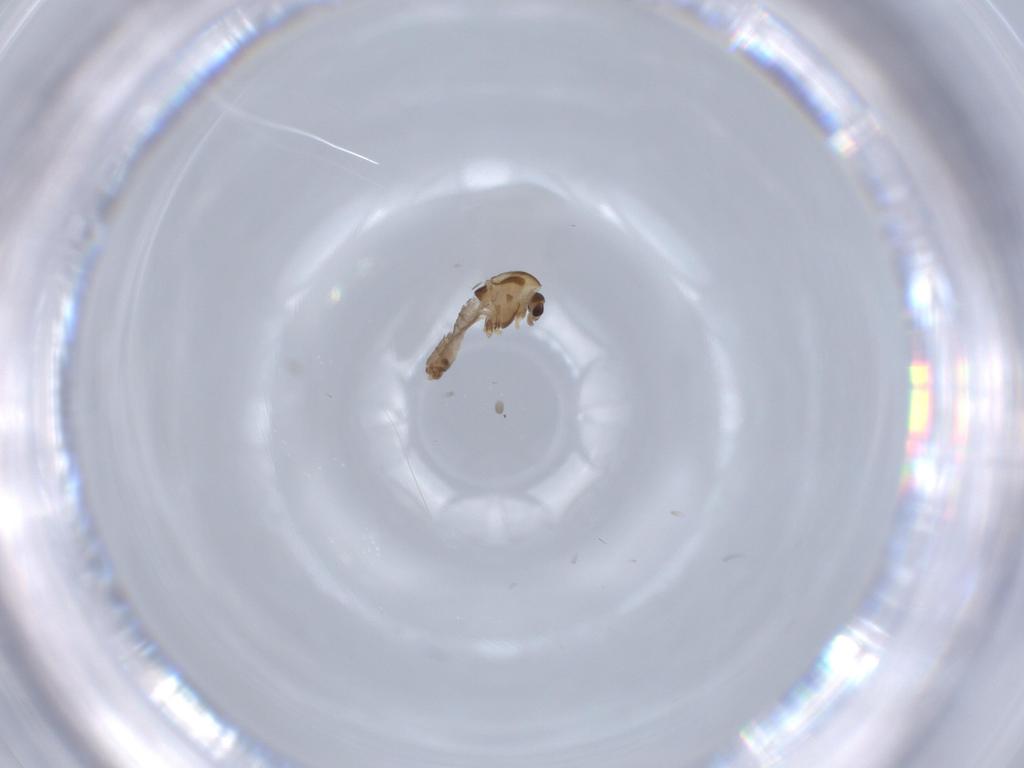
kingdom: Animalia
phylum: Arthropoda
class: Insecta
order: Diptera
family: Chironomidae
